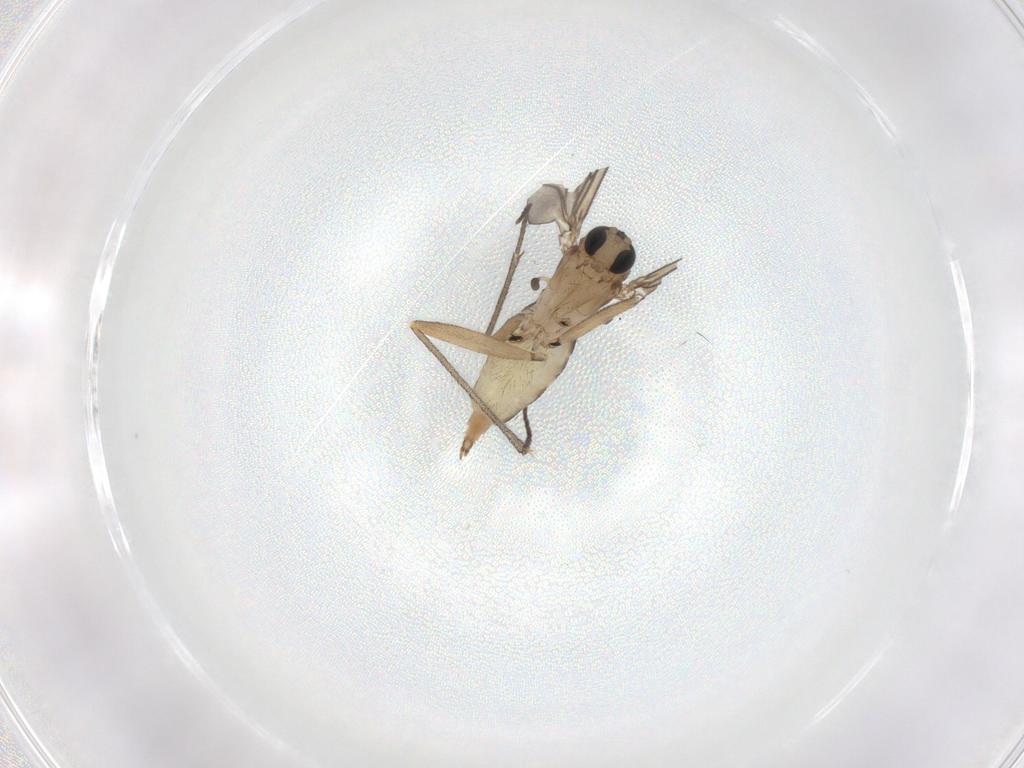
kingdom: Animalia
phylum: Arthropoda
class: Insecta
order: Diptera
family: Sciaridae
